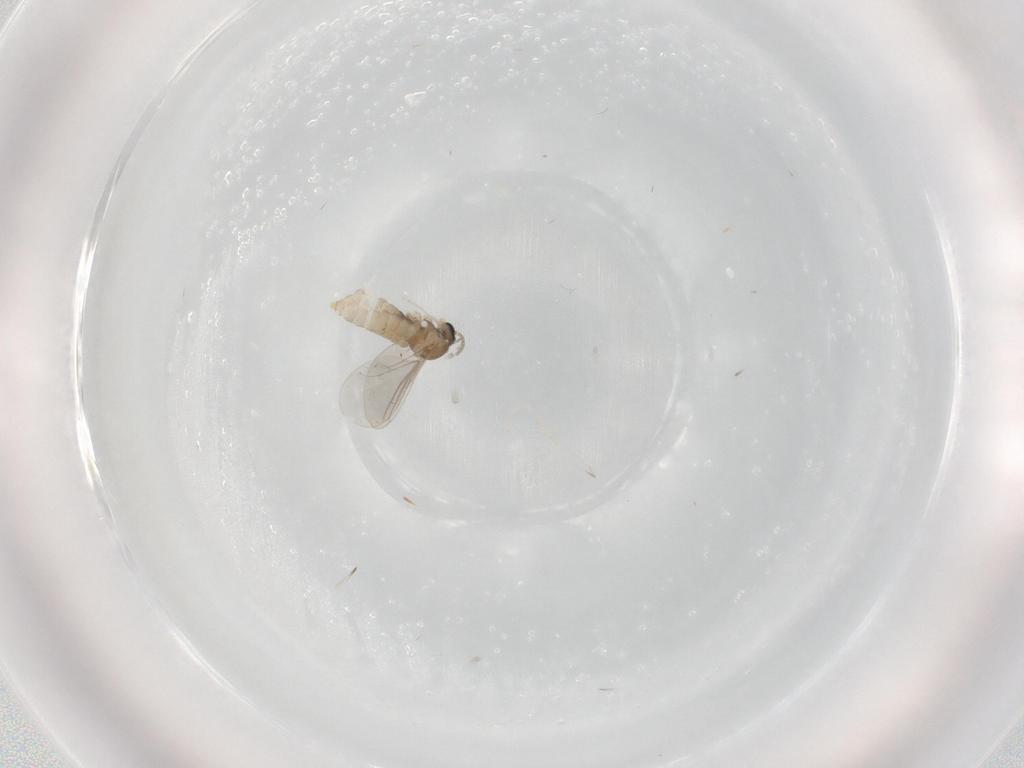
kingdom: Animalia
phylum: Arthropoda
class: Insecta
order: Diptera
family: Cecidomyiidae
